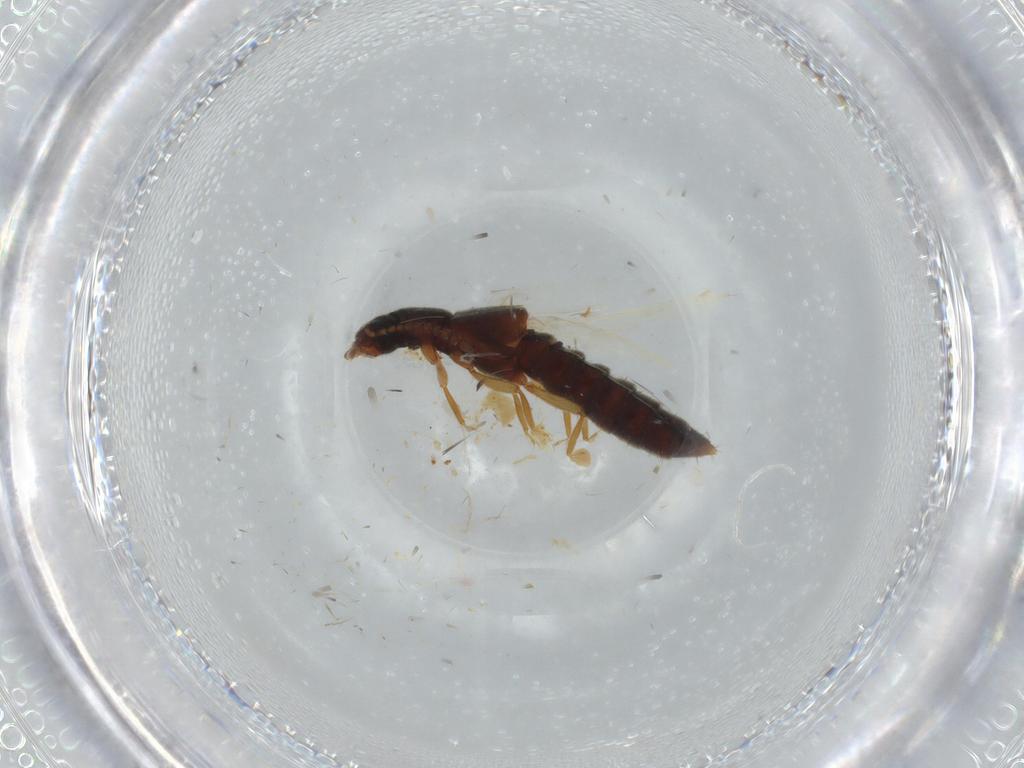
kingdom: Animalia
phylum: Arthropoda
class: Insecta
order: Coleoptera
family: Staphylinidae
